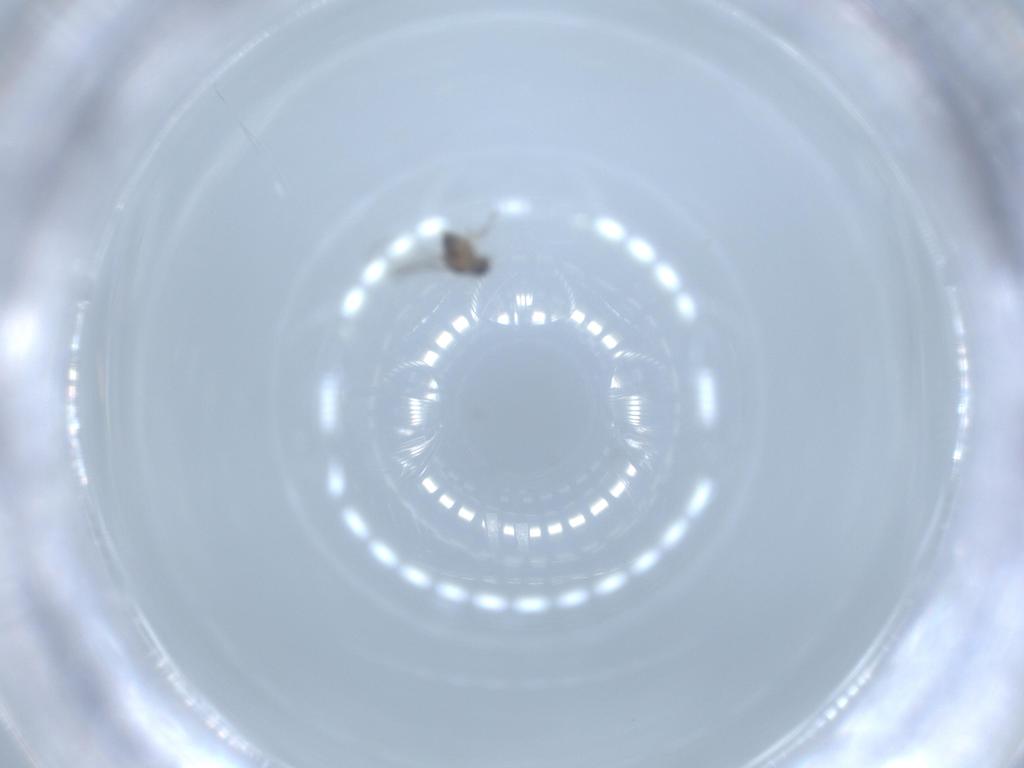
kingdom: Animalia
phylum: Arthropoda
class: Insecta
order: Diptera
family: Cecidomyiidae
